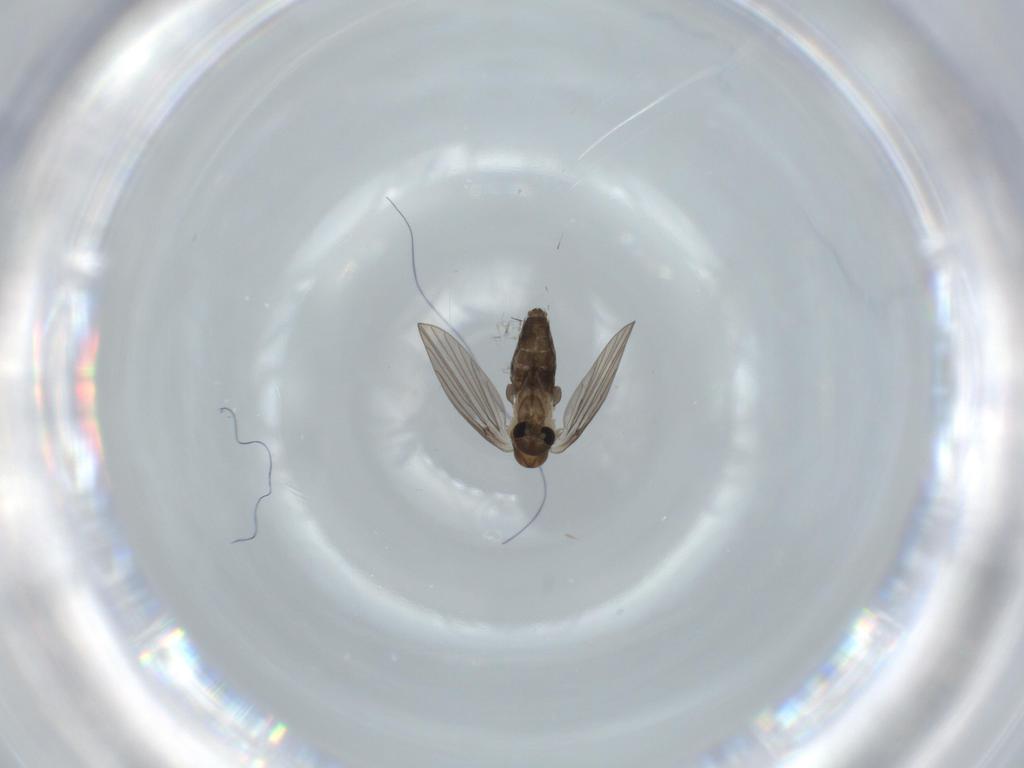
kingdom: Animalia
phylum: Arthropoda
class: Insecta
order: Diptera
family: Psychodidae
